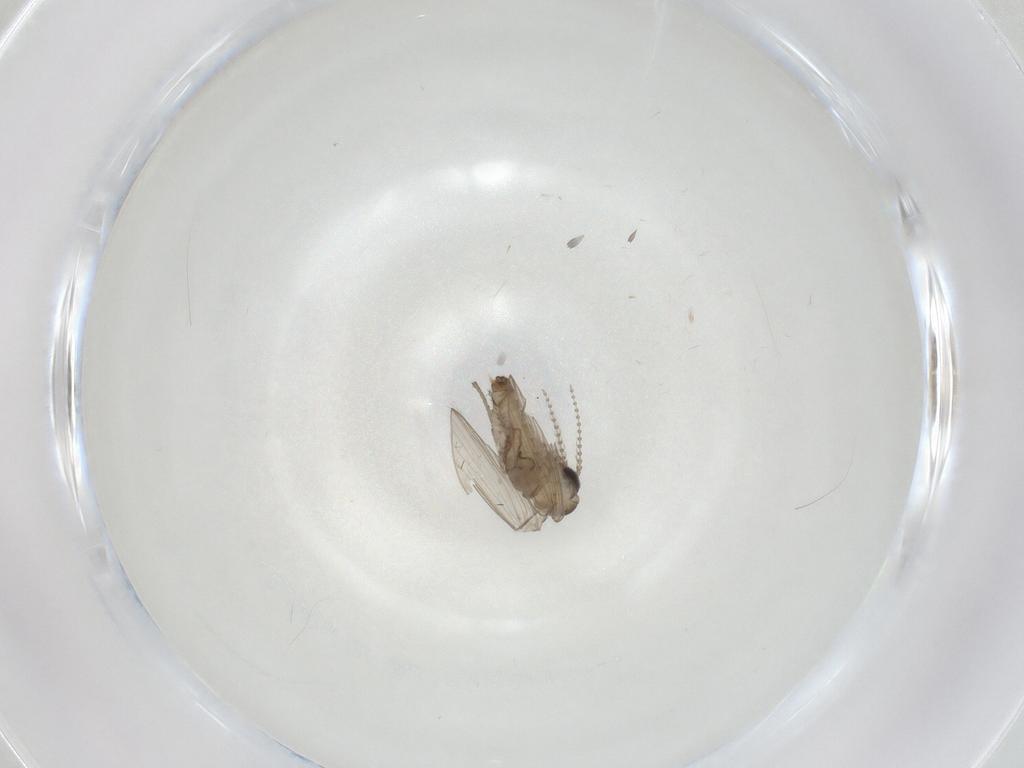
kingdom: Animalia
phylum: Arthropoda
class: Insecta
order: Diptera
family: Psychodidae
